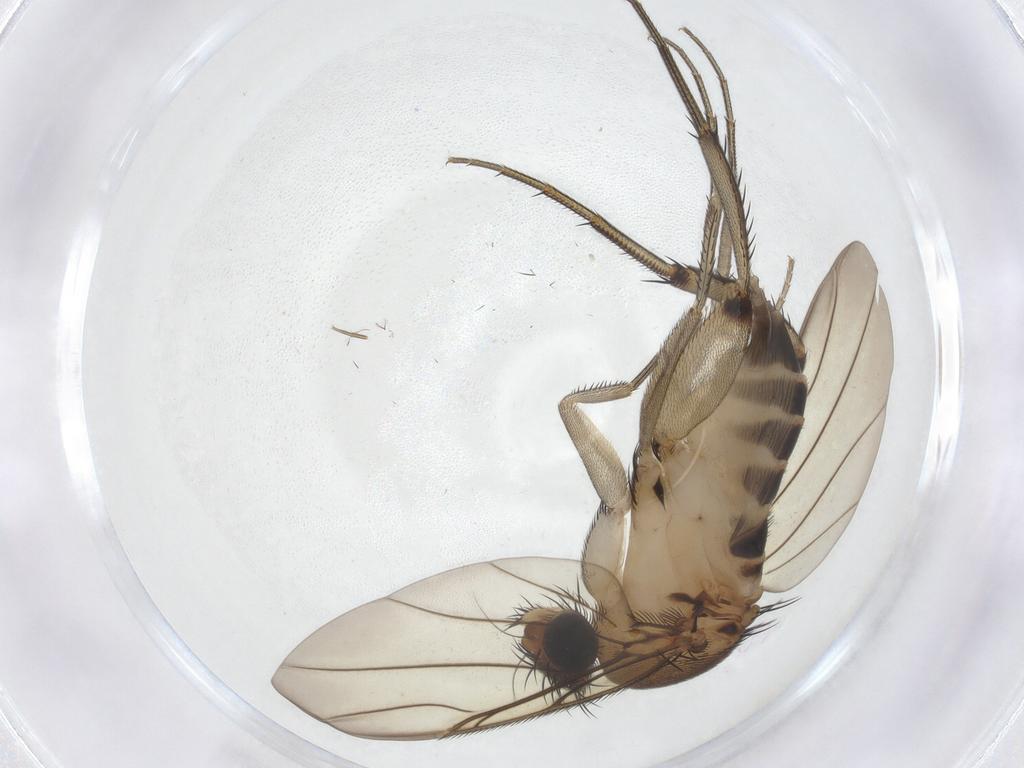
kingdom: Animalia
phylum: Arthropoda
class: Insecta
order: Diptera
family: Phoridae
